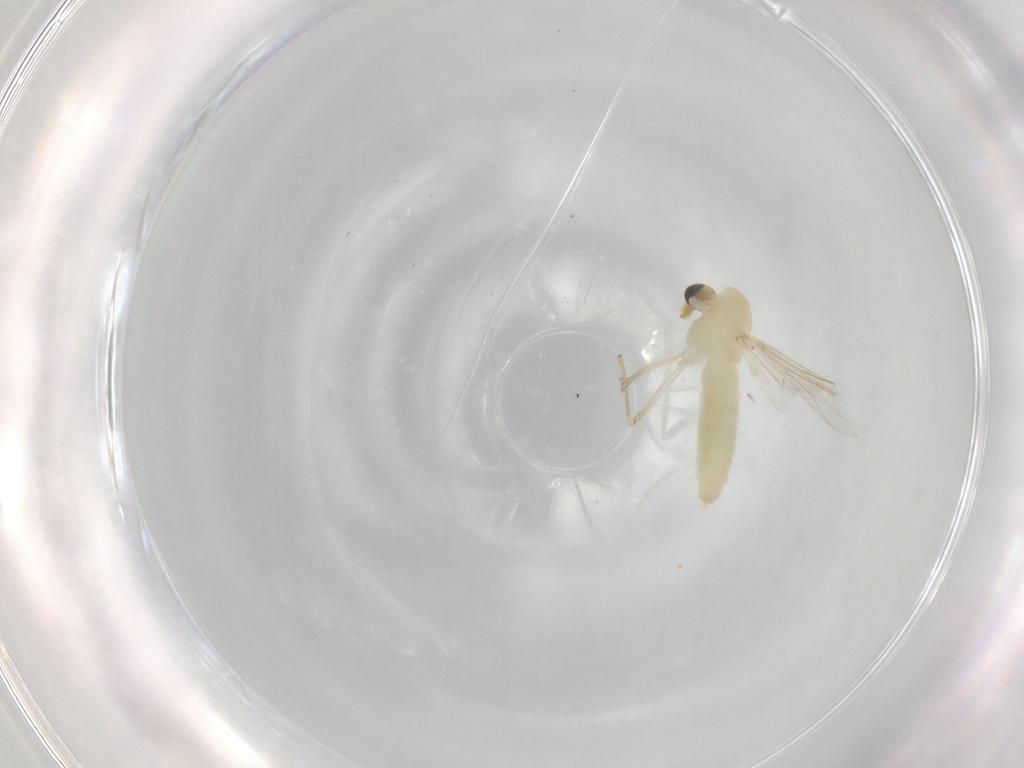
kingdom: Animalia
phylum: Arthropoda
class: Insecta
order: Diptera
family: Chironomidae
